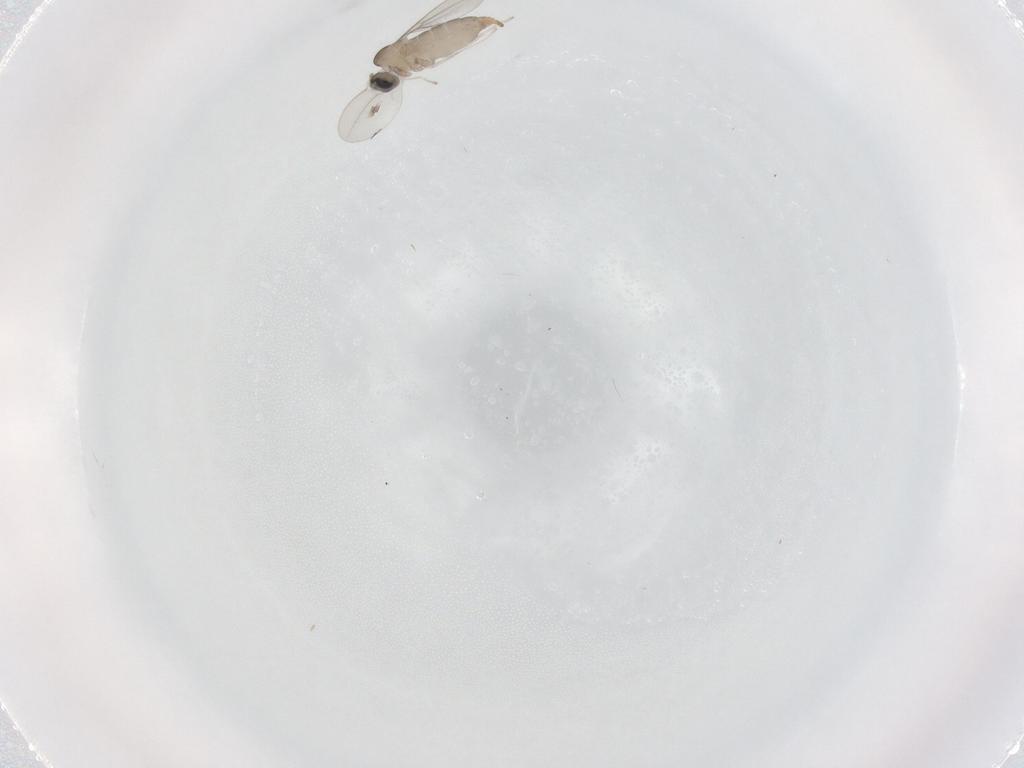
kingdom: Animalia
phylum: Arthropoda
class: Insecta
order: Diptera
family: Cecidomyiidae
